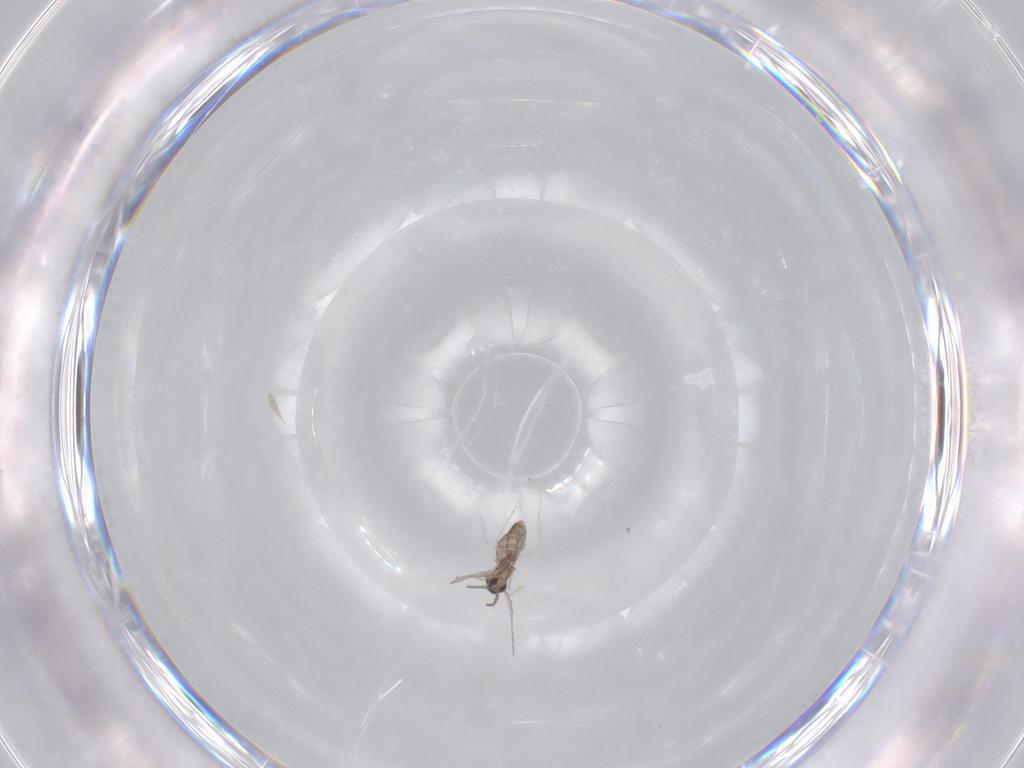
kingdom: Animalia
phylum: Arthropoda
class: Insecta
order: Diptera
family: Cecidomyiidae
